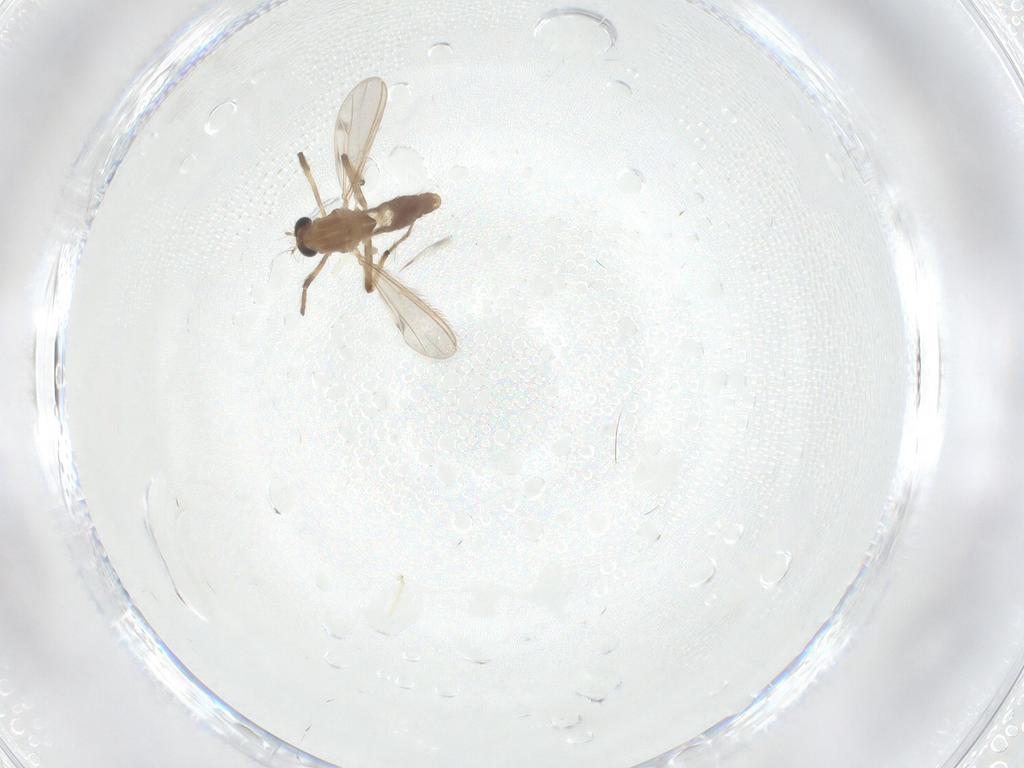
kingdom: Animalia
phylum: Arthropoda
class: Insecta
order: Diptera
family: Chironomidae
